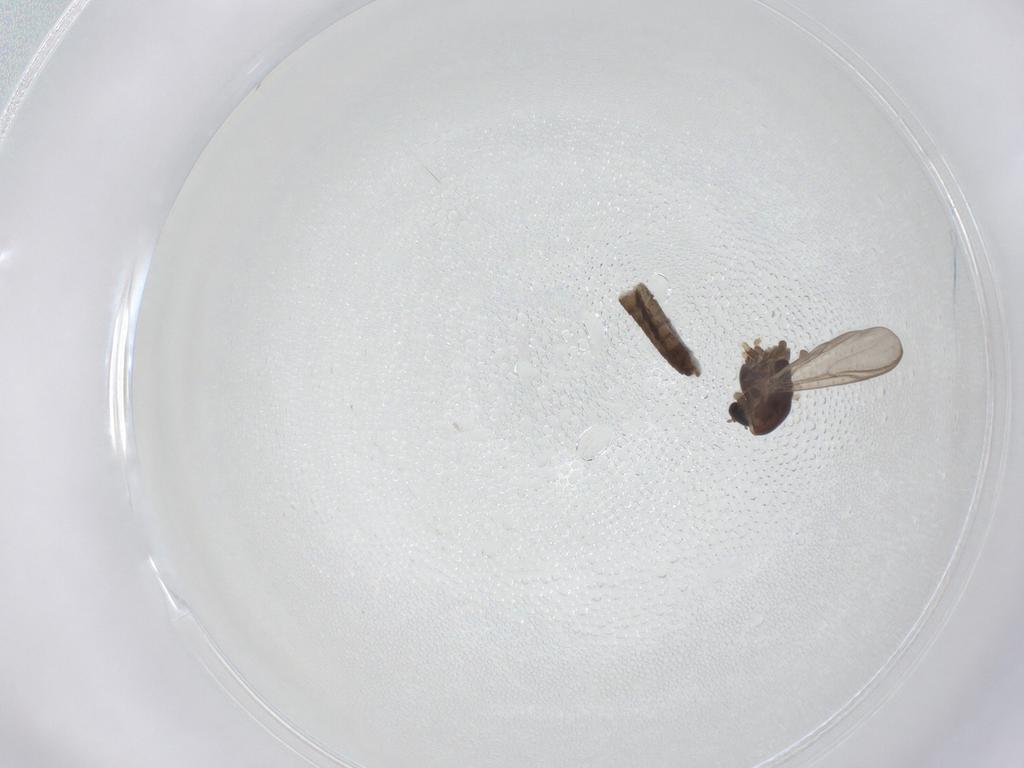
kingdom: Animalia
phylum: Arthropoda
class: Insecta
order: Diptera
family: Chironomidae
